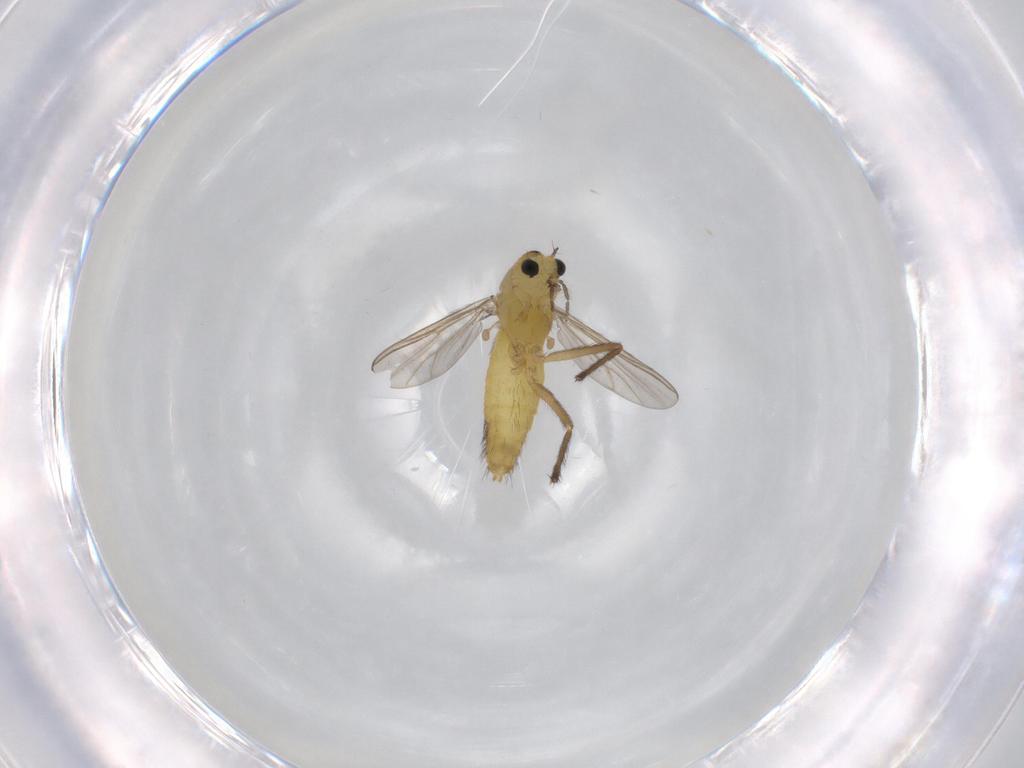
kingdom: Animalia
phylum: Arthropoda
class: Insecta
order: Diptera
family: Chironomidae
